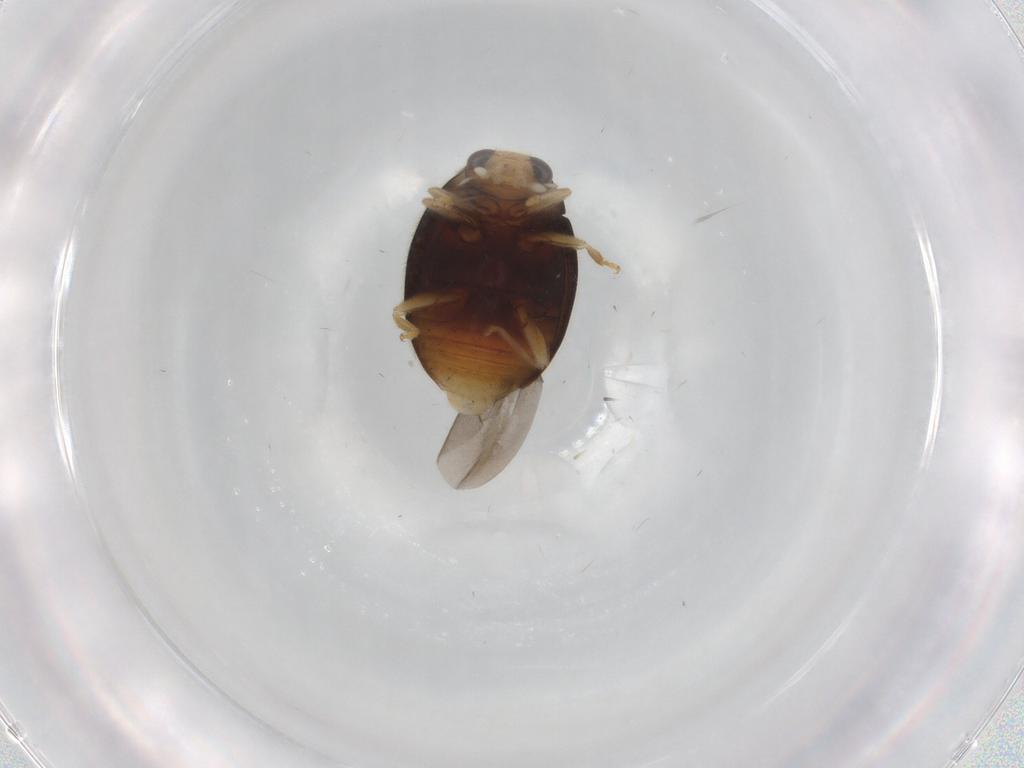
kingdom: Animalia
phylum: Arthropoda
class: Insecta
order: Coleoptera
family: Coccinellidae
